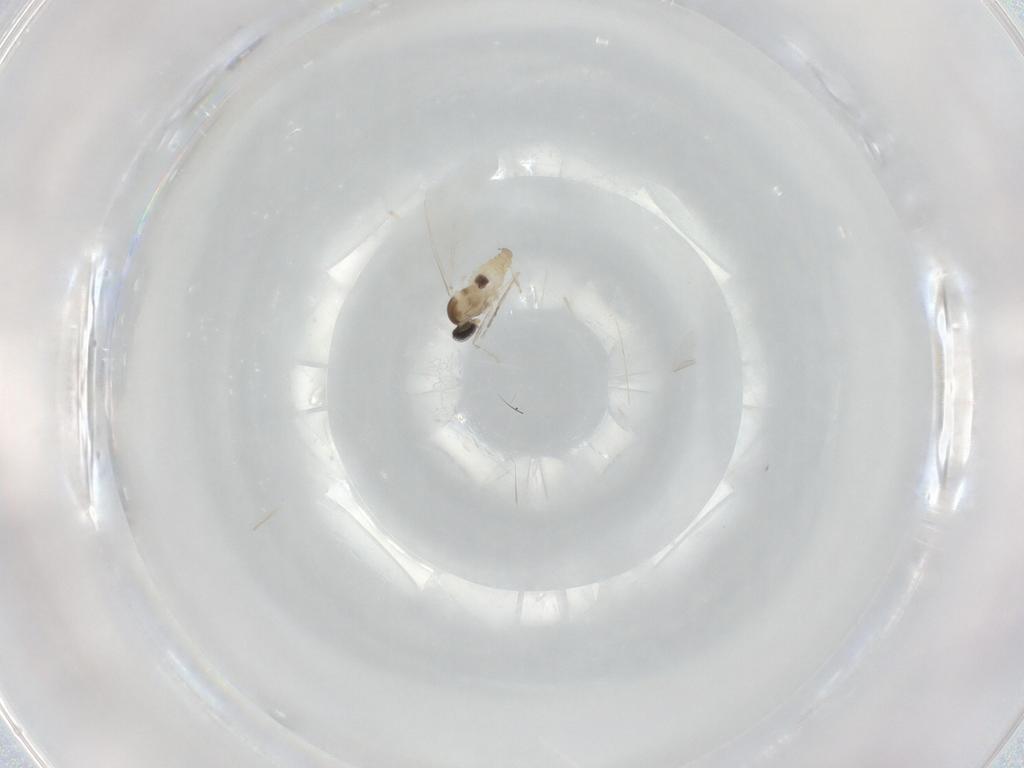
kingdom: Animalia
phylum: Arthropoda
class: Insecta
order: Diptera
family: Cecidomyiidae
